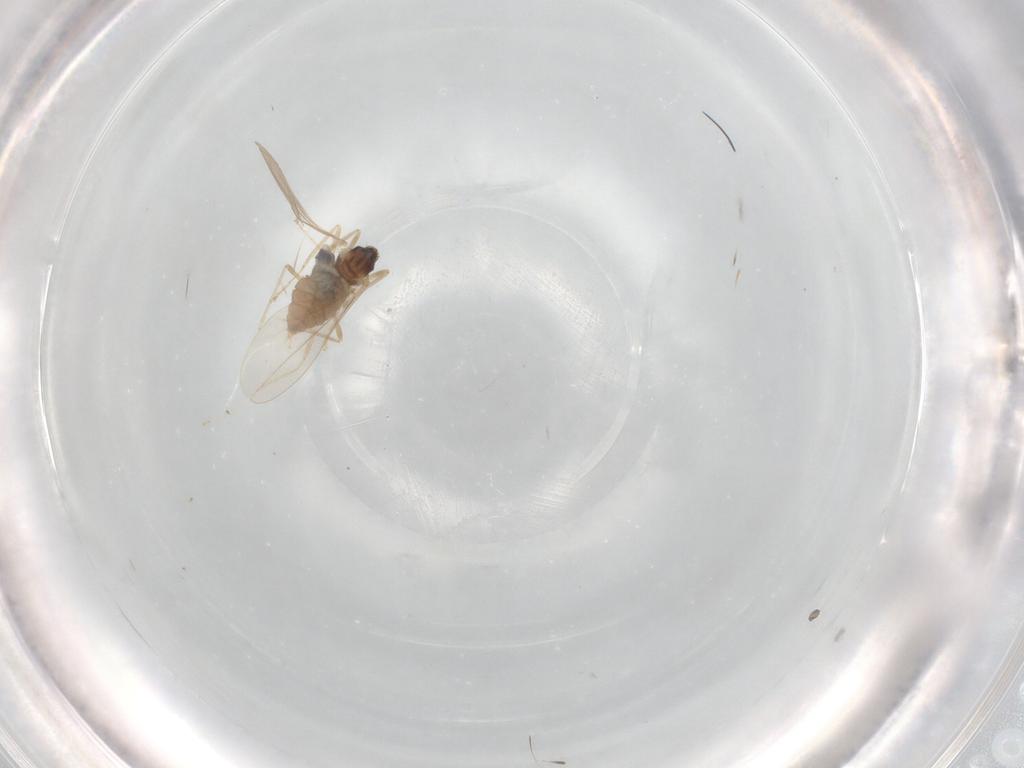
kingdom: Animalia
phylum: Arthropoda
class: Insecta
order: Diptera
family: Cecidomyiidae
